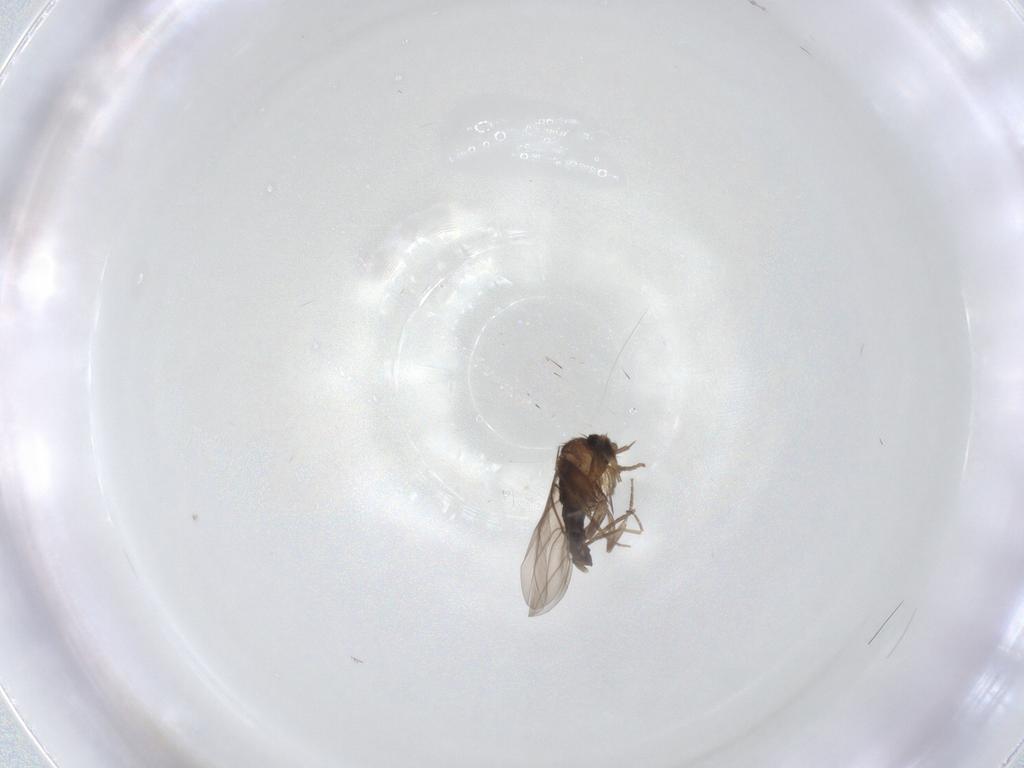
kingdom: Animalia
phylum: Arthropoda
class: Insecta
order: Diptera
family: Phoridae
